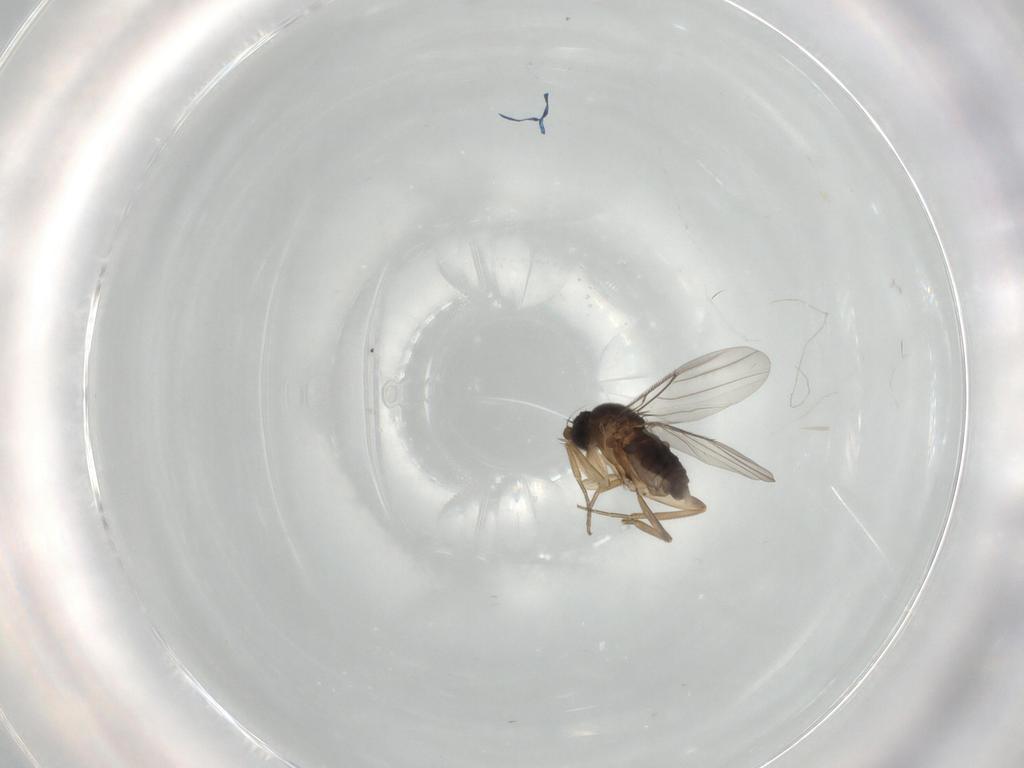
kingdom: Animalia
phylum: Arthropoda
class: Insecta
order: Diptera
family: Phoridae
